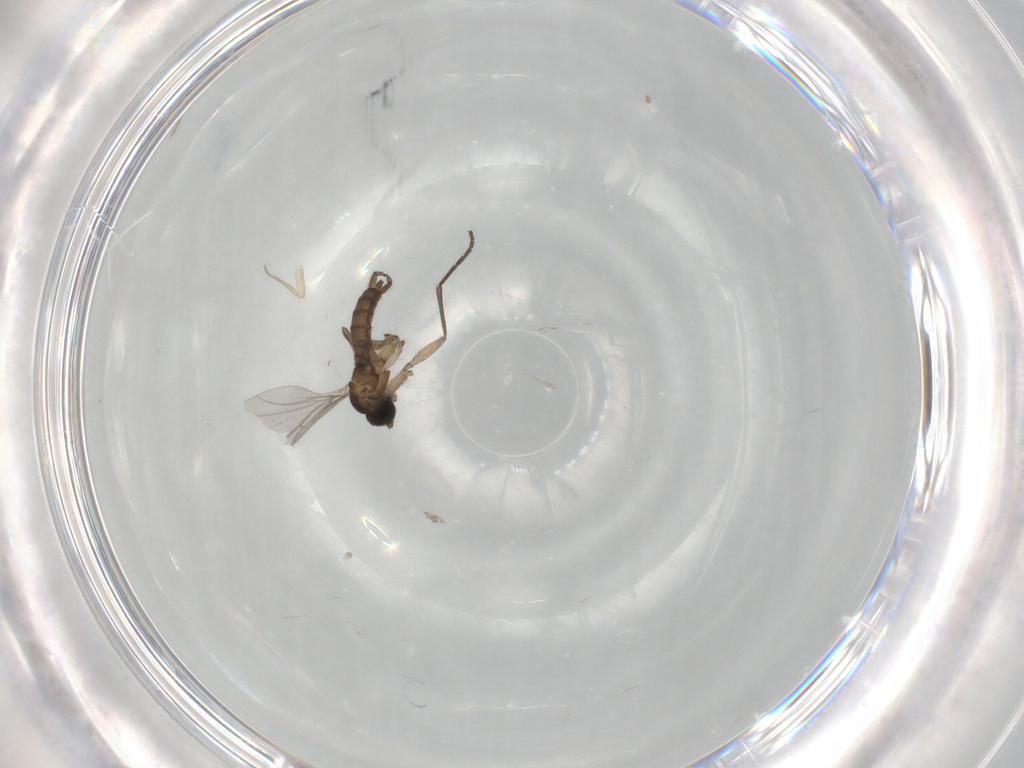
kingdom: Animalia
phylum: Arthropoda
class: Insecta
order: Diptera
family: Sciaridae
